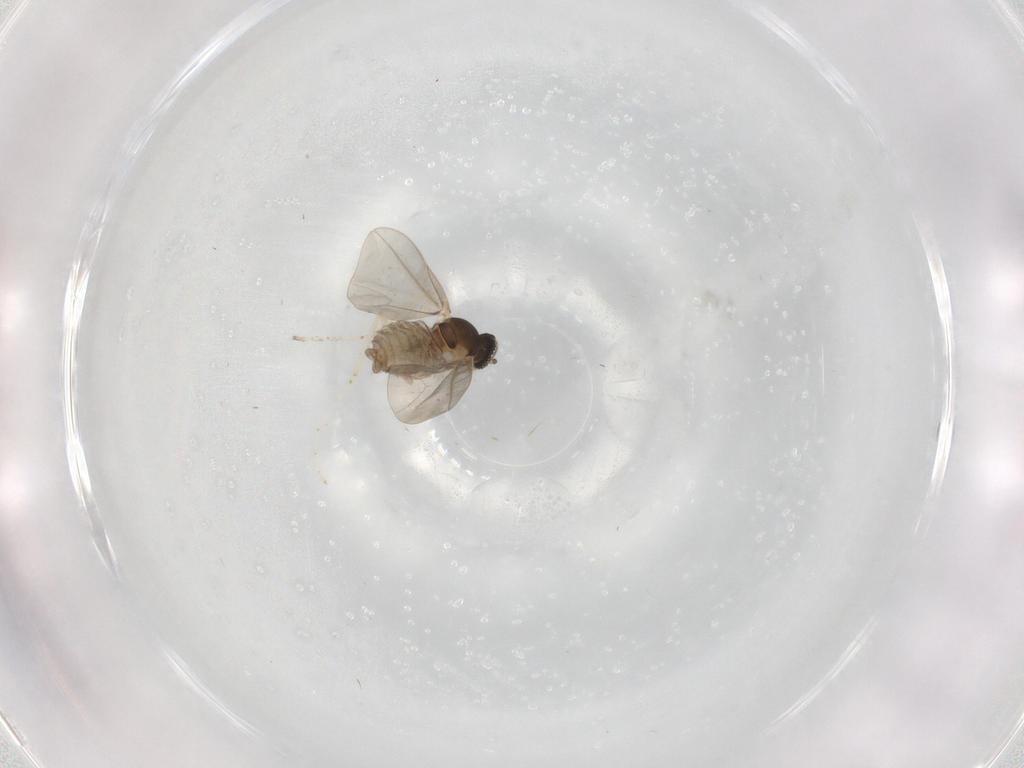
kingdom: Animalia
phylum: Arthropoda
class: Insecta
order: Diptera
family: Cecidomyiidae
